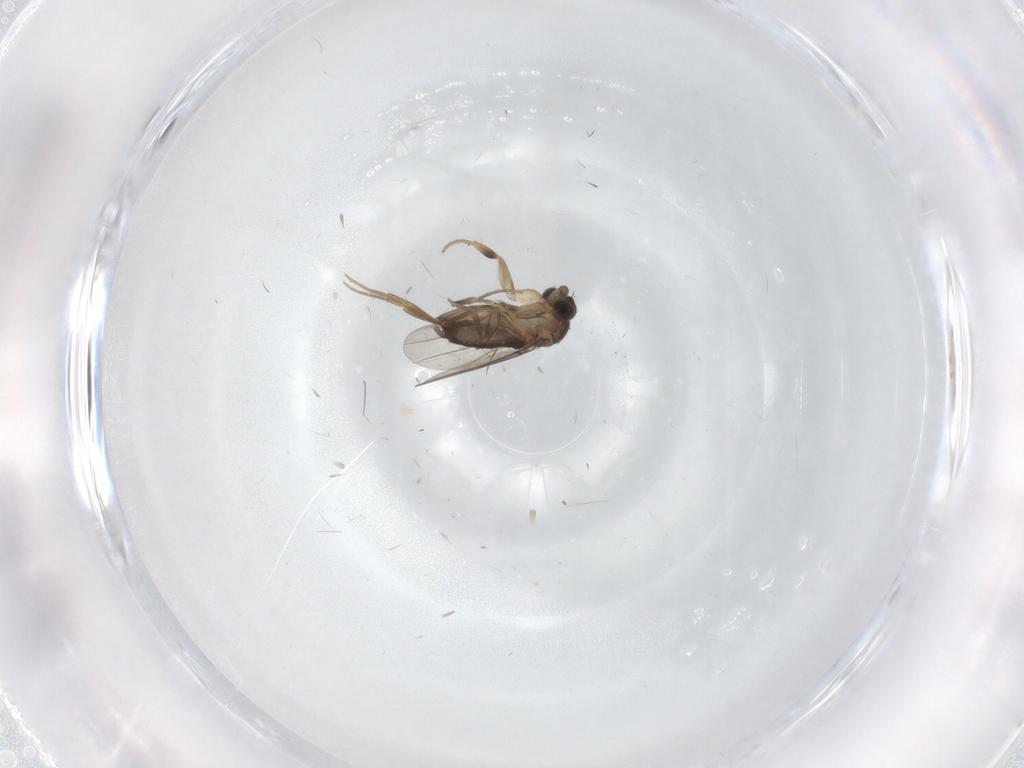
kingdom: Animalia
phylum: Arthropoda
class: Insecta
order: Diptera
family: Phoridae
